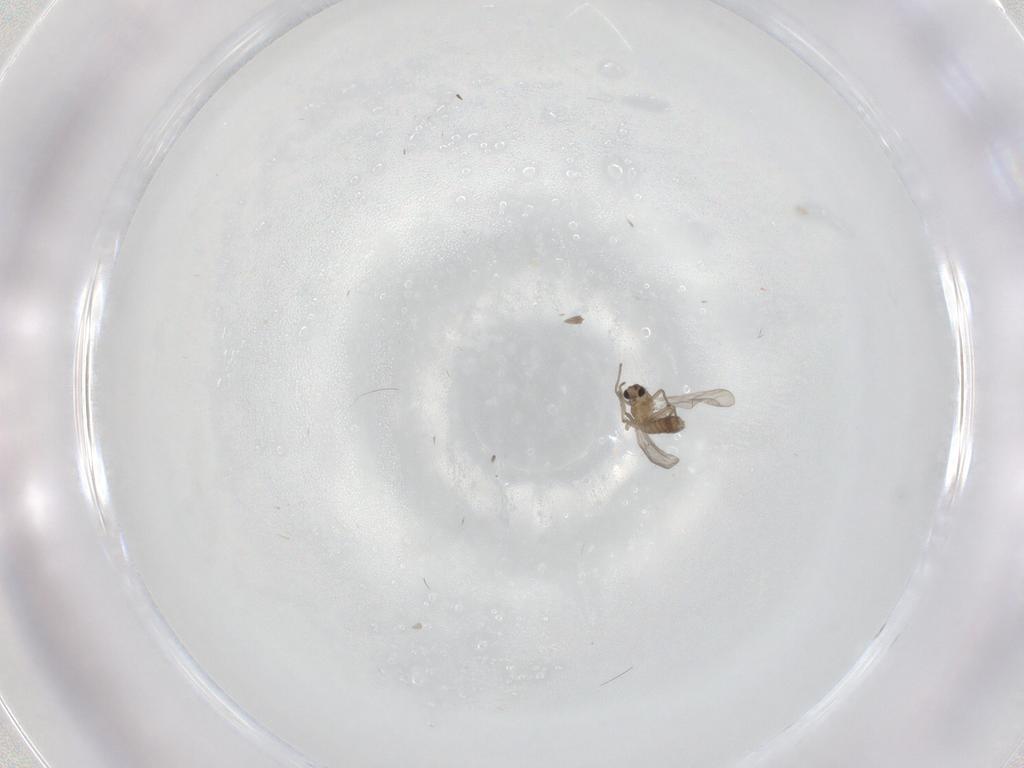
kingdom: Animalia
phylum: Arthropoda
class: Insecta
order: Diptera
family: Chironomidae
